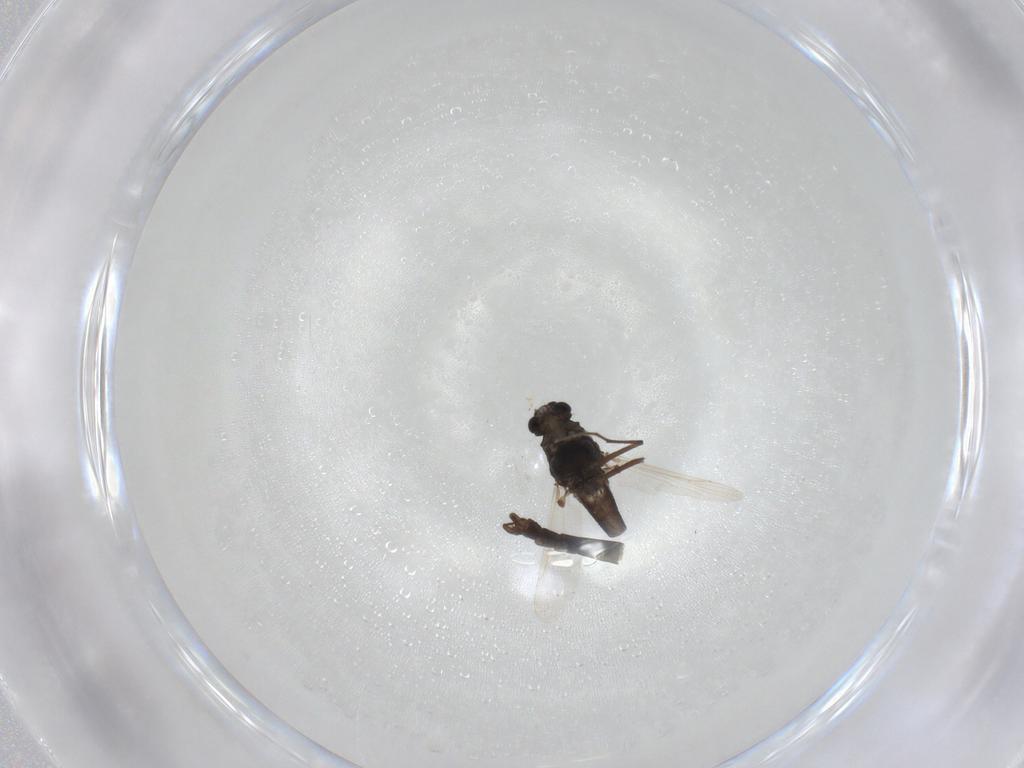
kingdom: Animalia
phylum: Arthropoda
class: Insecta
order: Diptera
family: Chironomidae
